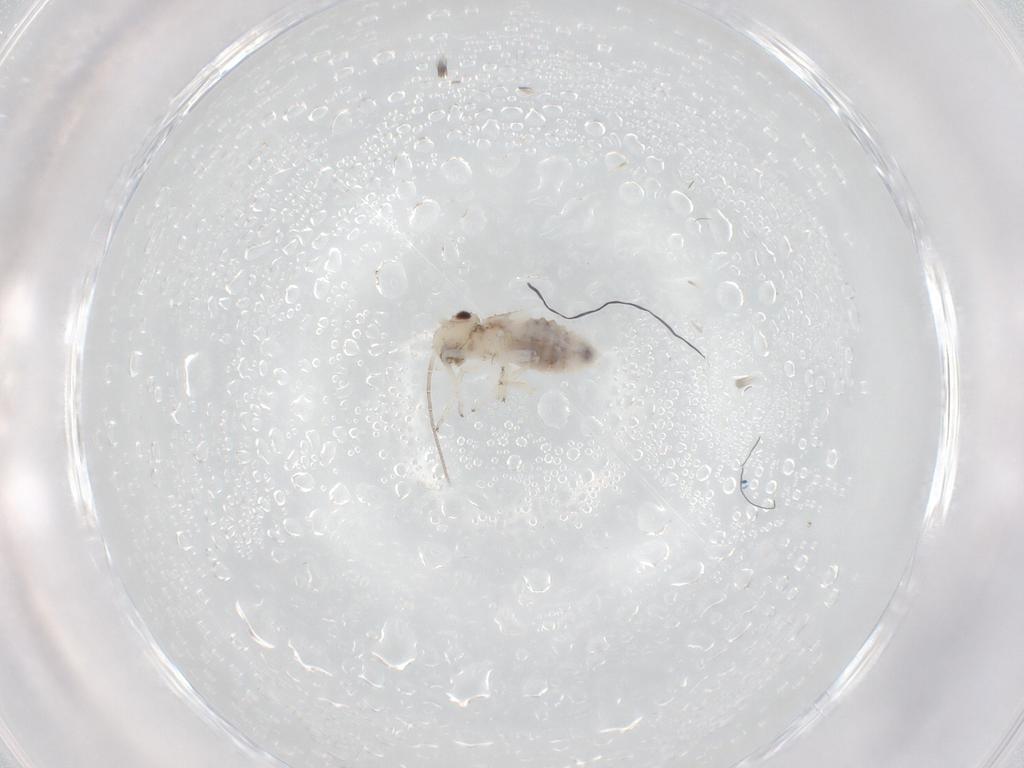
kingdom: Animalia
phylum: Arthropoda
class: Insecta
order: Psocodea
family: Psocidae
